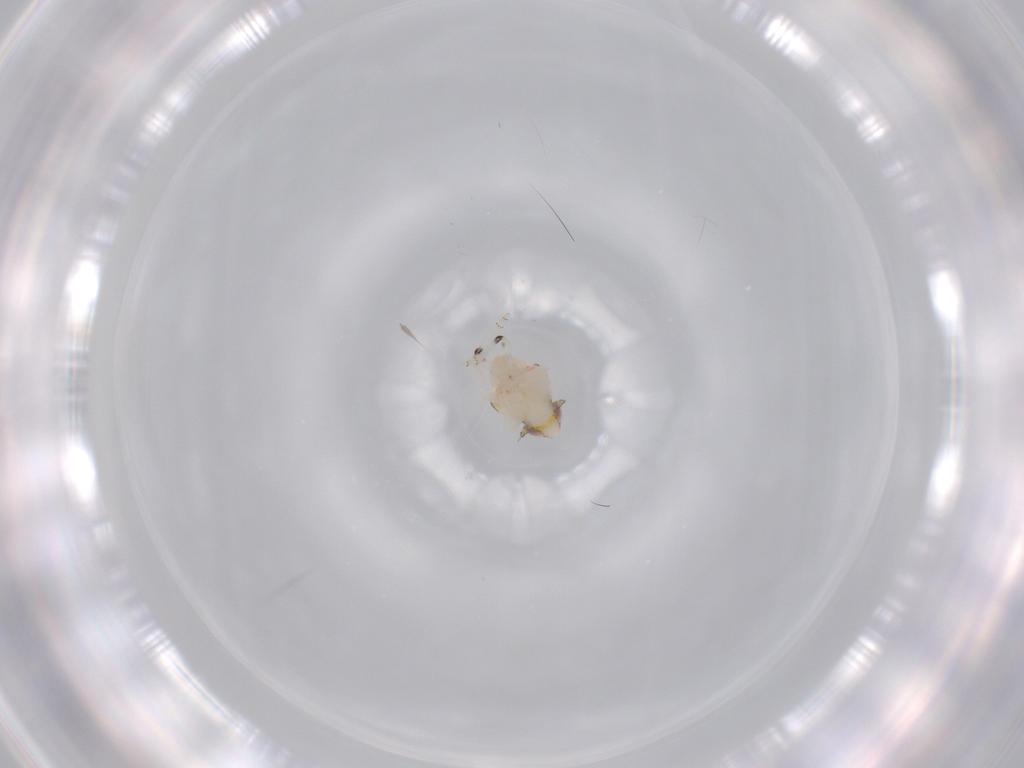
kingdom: Animalia
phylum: Arthropoda
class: Insecta
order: Hemiptera
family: Nogodinidae
